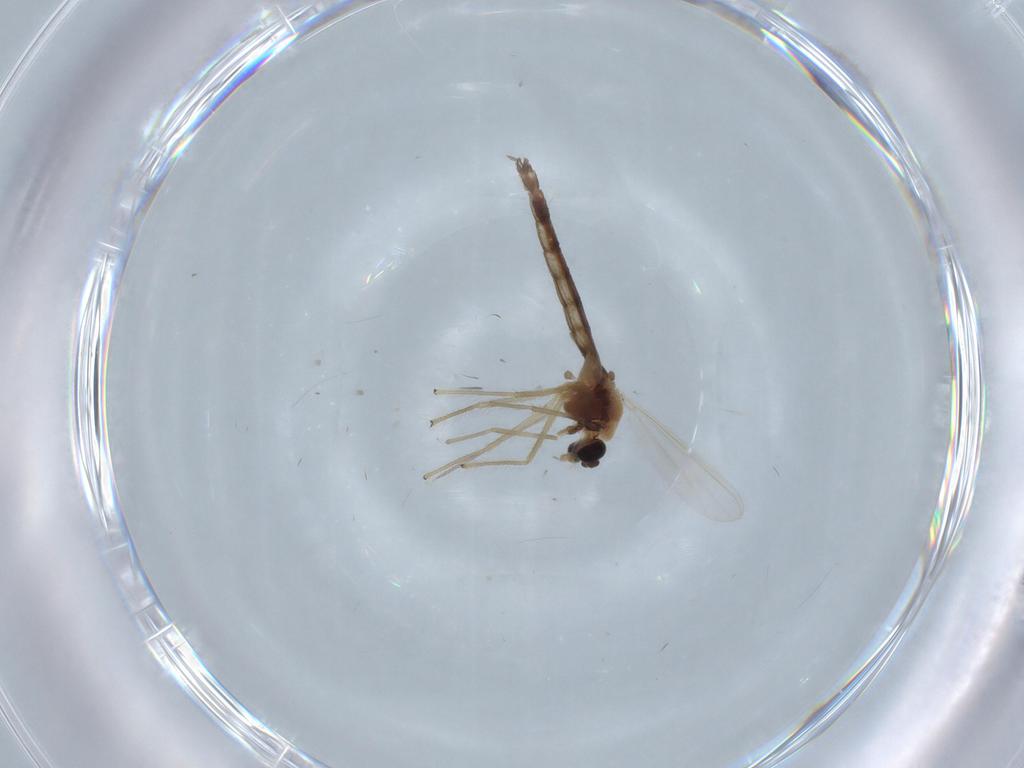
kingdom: Animalia
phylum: Arthropoda
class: Insecta
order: Diptera
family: Chironomidae
